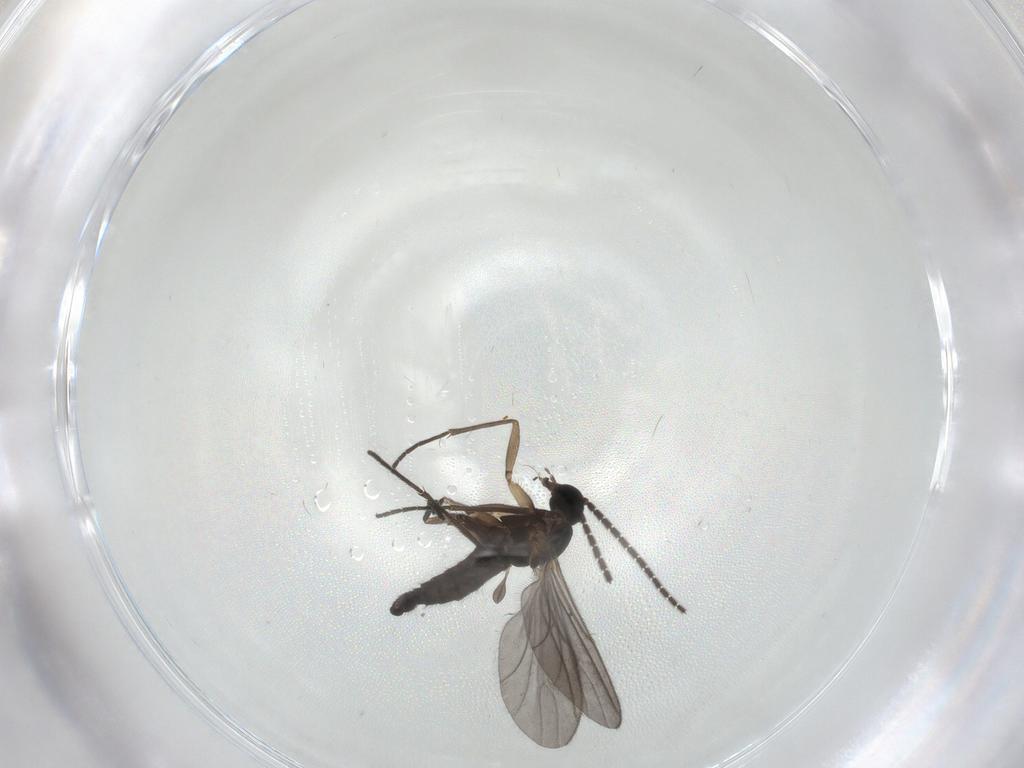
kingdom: Animalia
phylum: Arthropoda
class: Insecta
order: Diptera
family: Sciaridae
